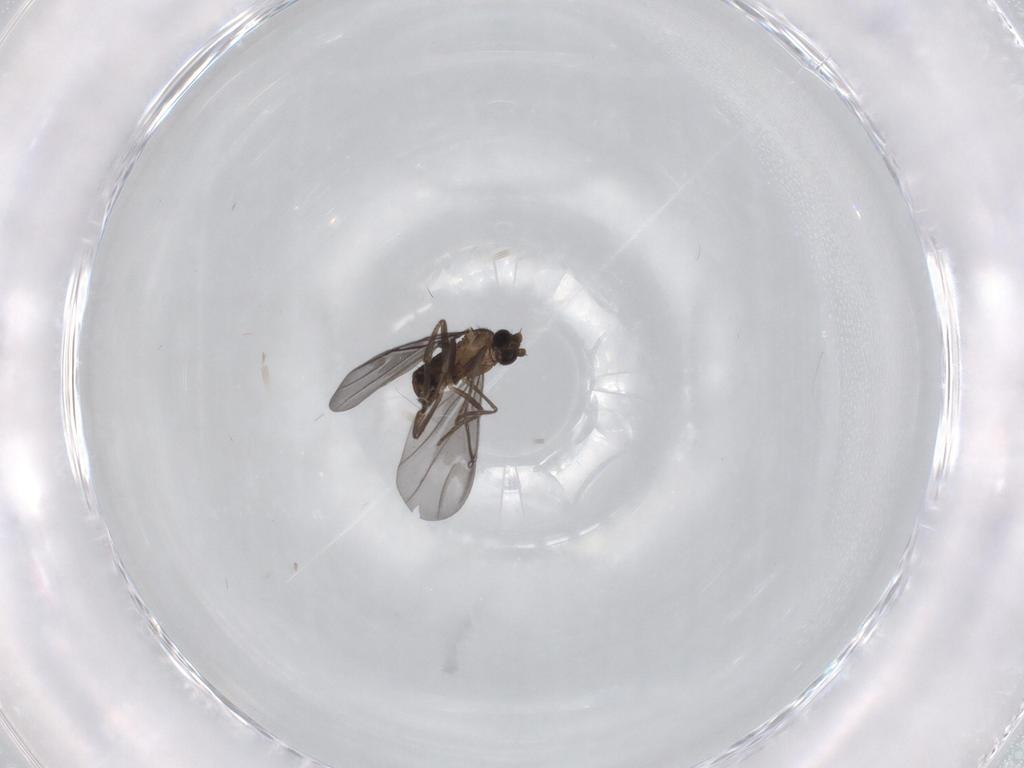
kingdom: Animalia
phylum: Arthropoda
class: Insecta
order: Diptera
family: Phoridae
